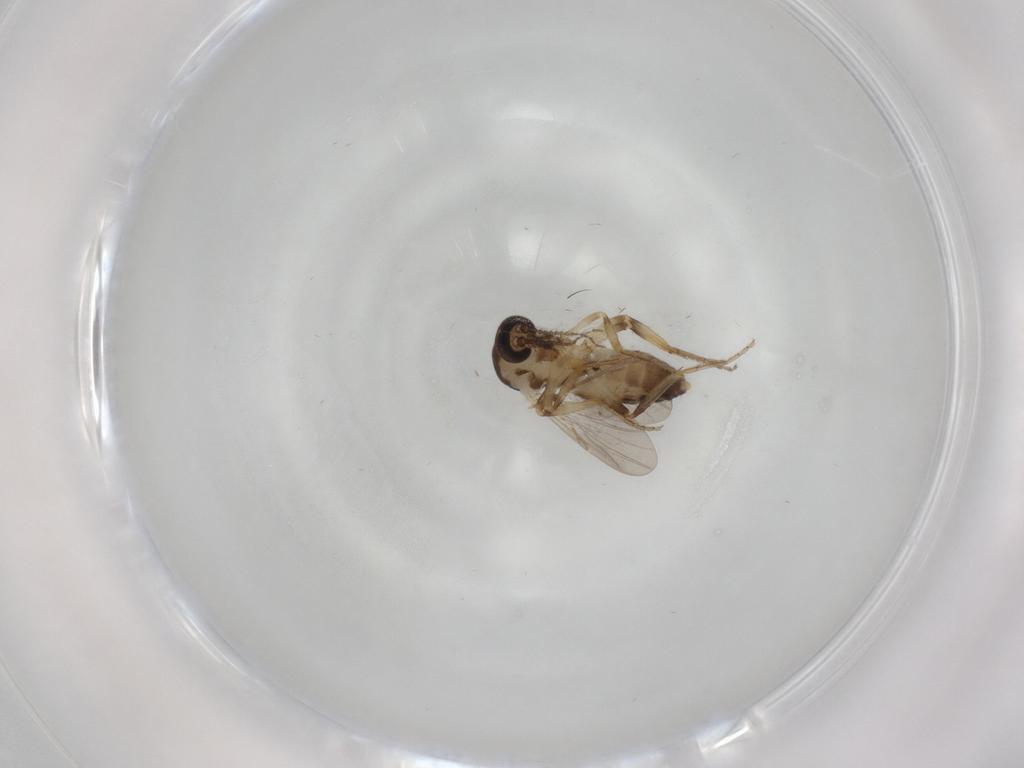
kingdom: Animalia
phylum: Arthropoda
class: Insecta
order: Diptera
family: Ceratopogonidae
